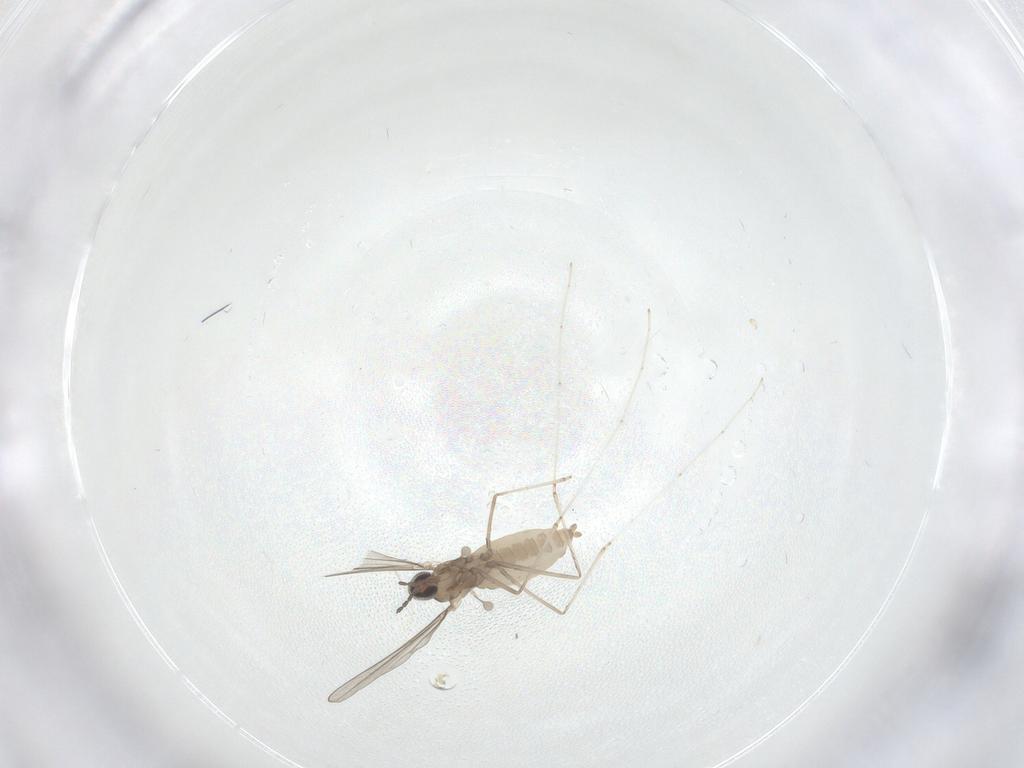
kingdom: Animalia
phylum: Arthropoda
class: Insecta
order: Diptera
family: Cecidomyiidae
